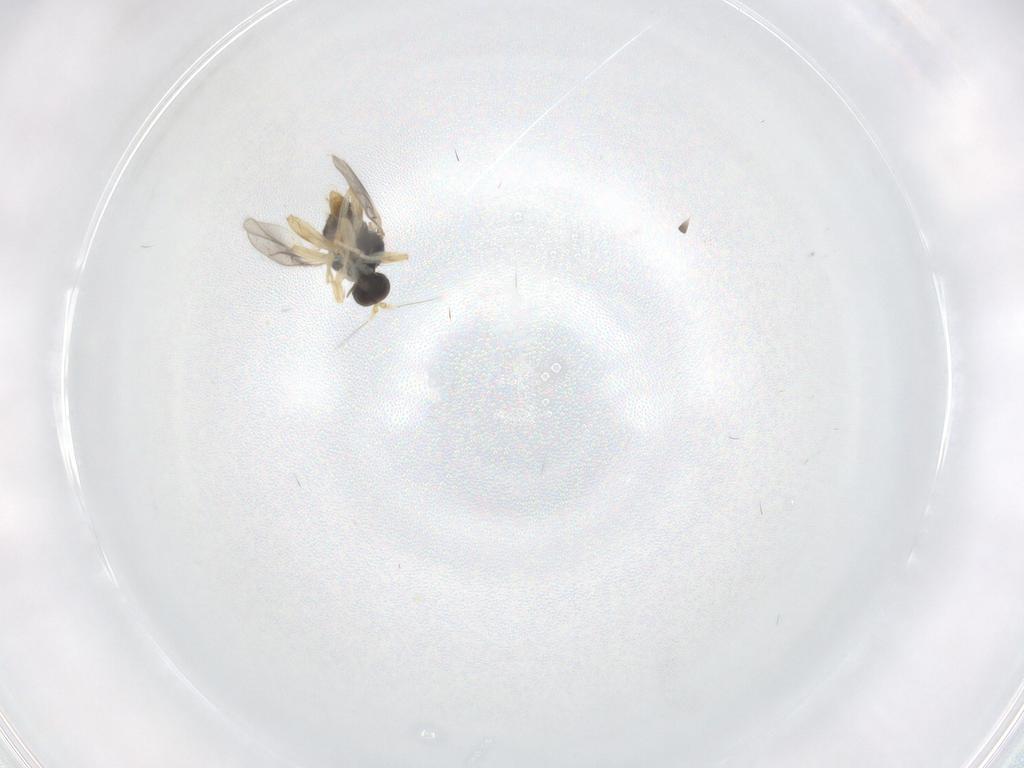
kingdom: Animalia
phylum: Arthropoda
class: Insecta
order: Diptera
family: Hybotidae
